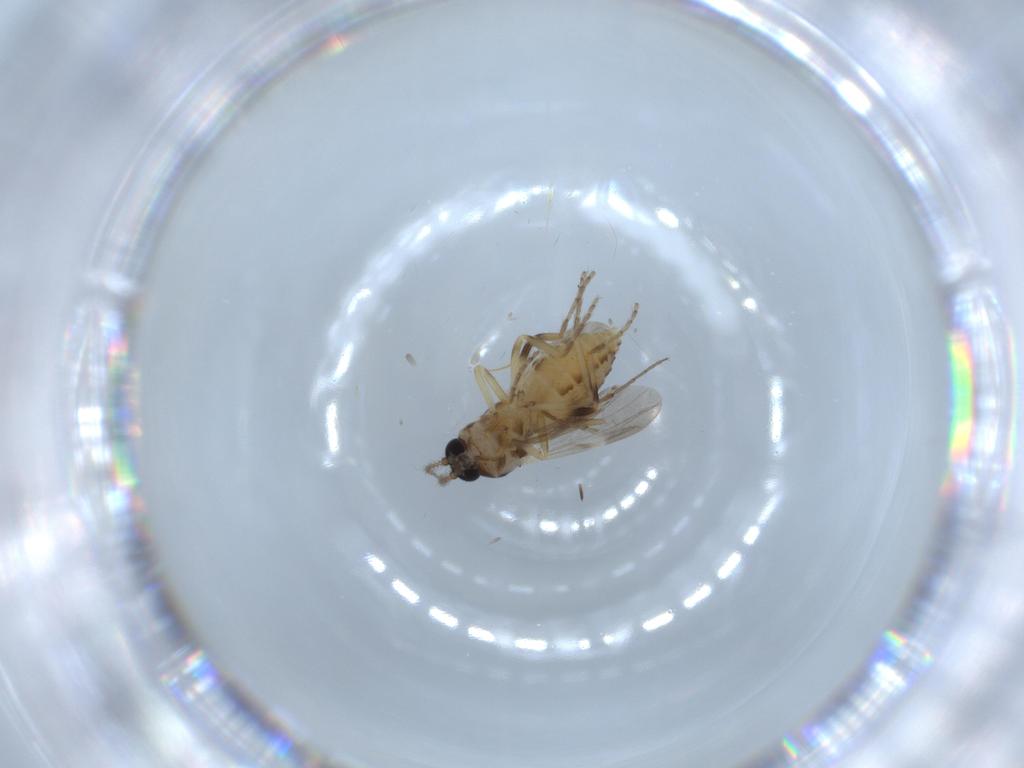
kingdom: Animalia
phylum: Arthropoda
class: Insecta
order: Diptera
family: Ceratopogonidae
